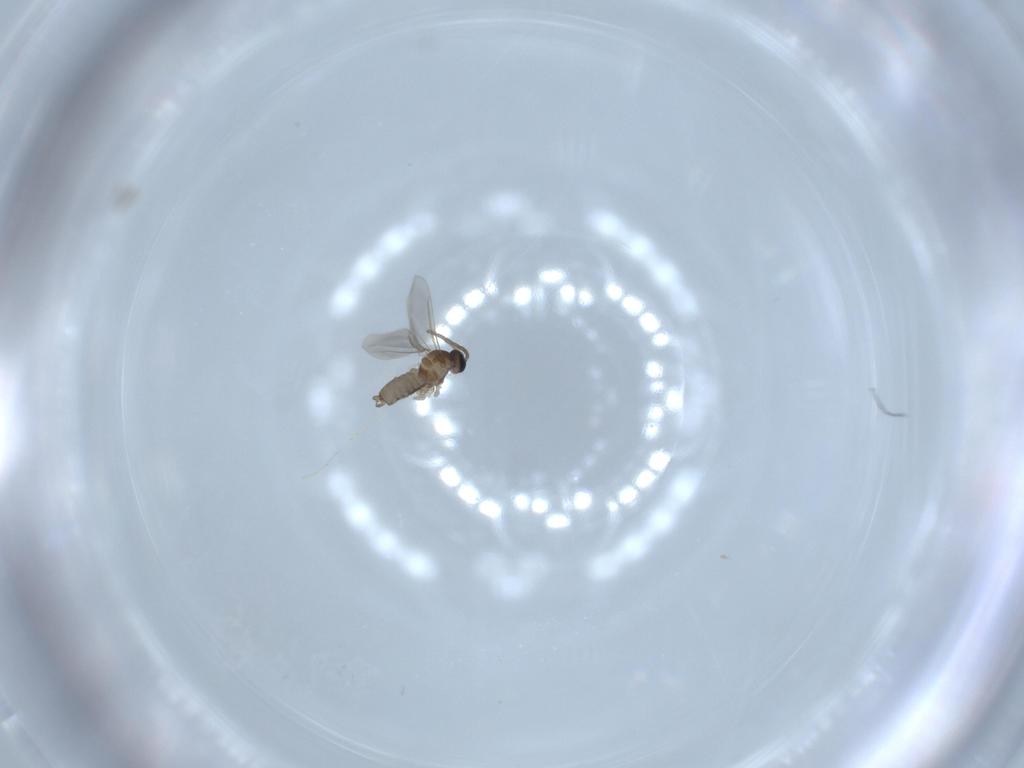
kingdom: Animalia
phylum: Arthropoda
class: Insecta
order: Diptera
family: Cecidomyiidae
